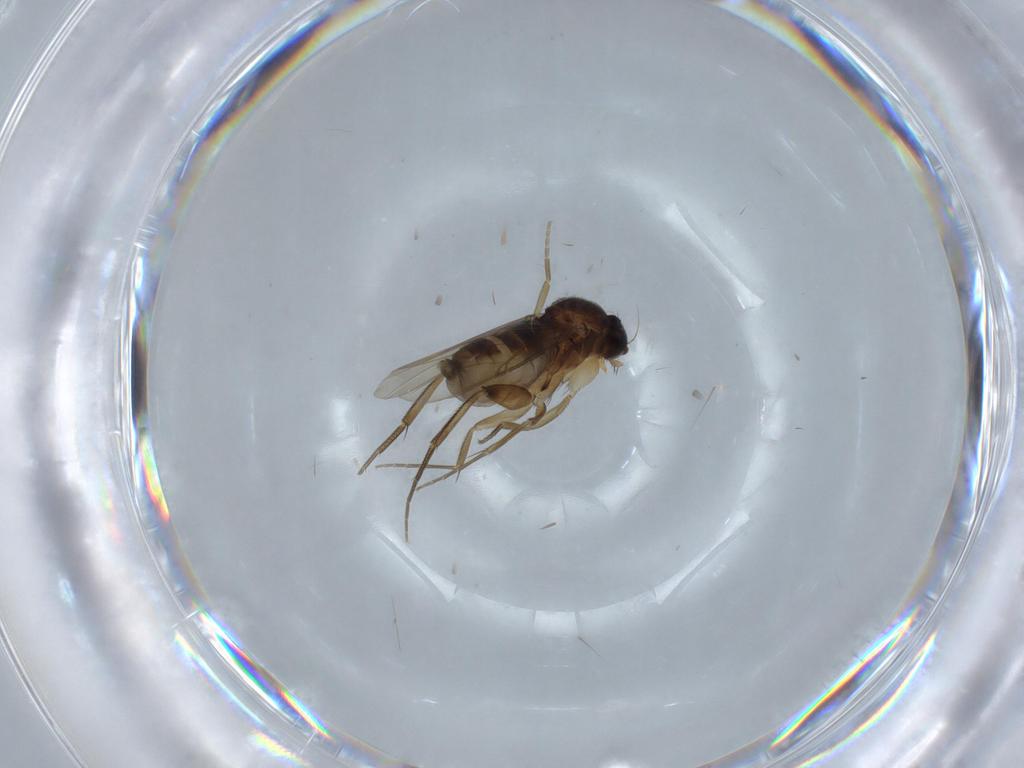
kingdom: Animalia
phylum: Arthropoda
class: Insecta
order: Diptera
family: Phoridae
